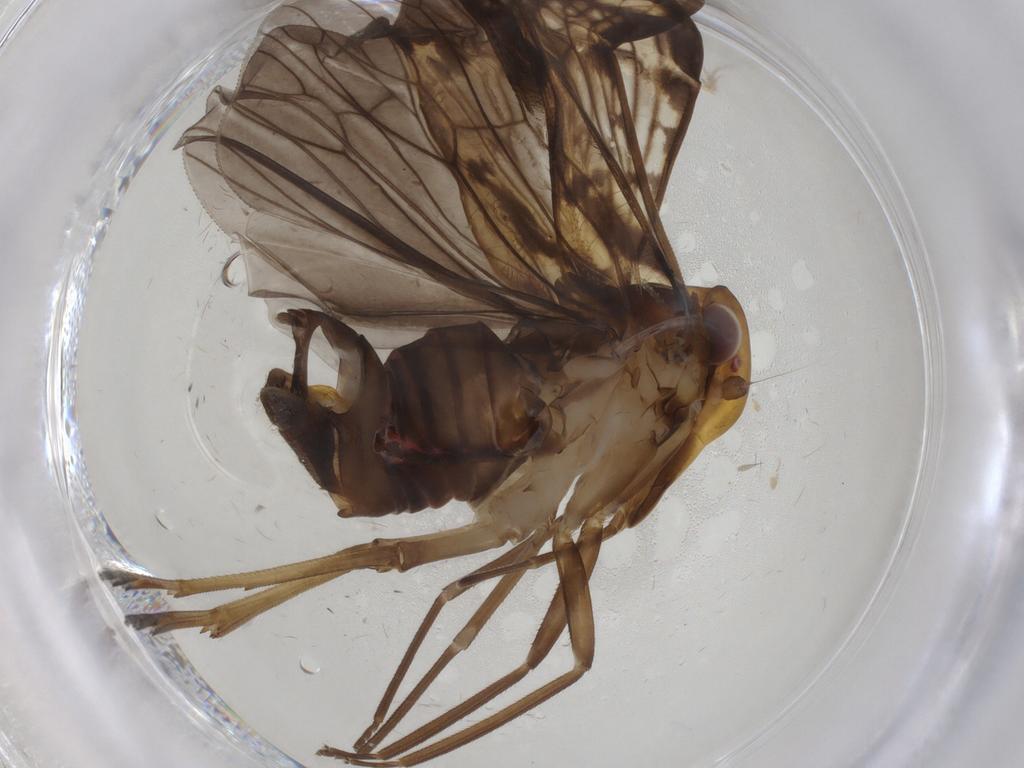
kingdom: Animalia
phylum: Arthropoda
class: Insecta
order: Hemiptera
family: Cixiidae
